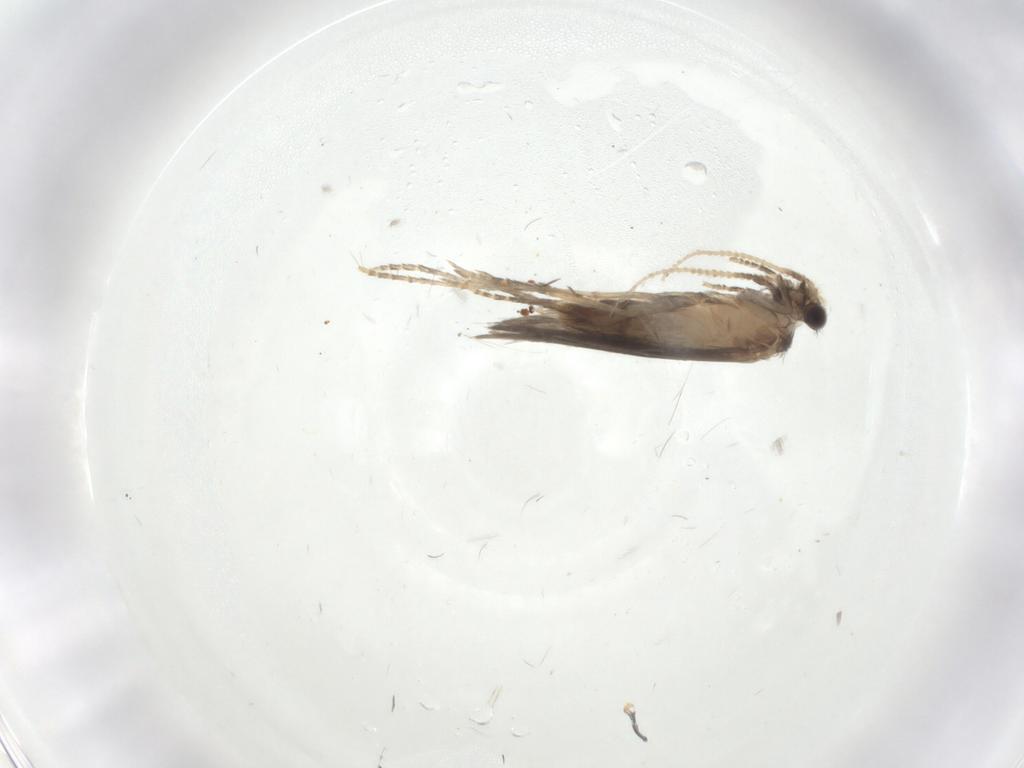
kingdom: Animalia
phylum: Arthropoda
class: Insecta
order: Trichoptera
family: Hydroptilidae
